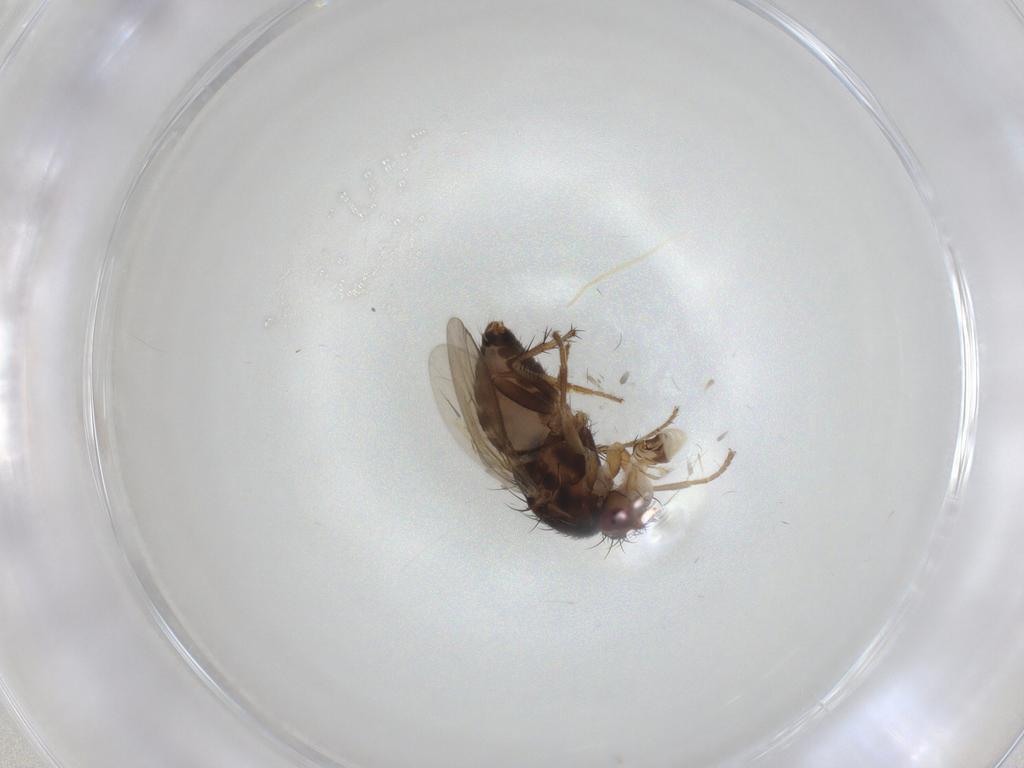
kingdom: Animalia
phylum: Arthropoda
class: Insecta
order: Diptera
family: Sphaeroceridae
